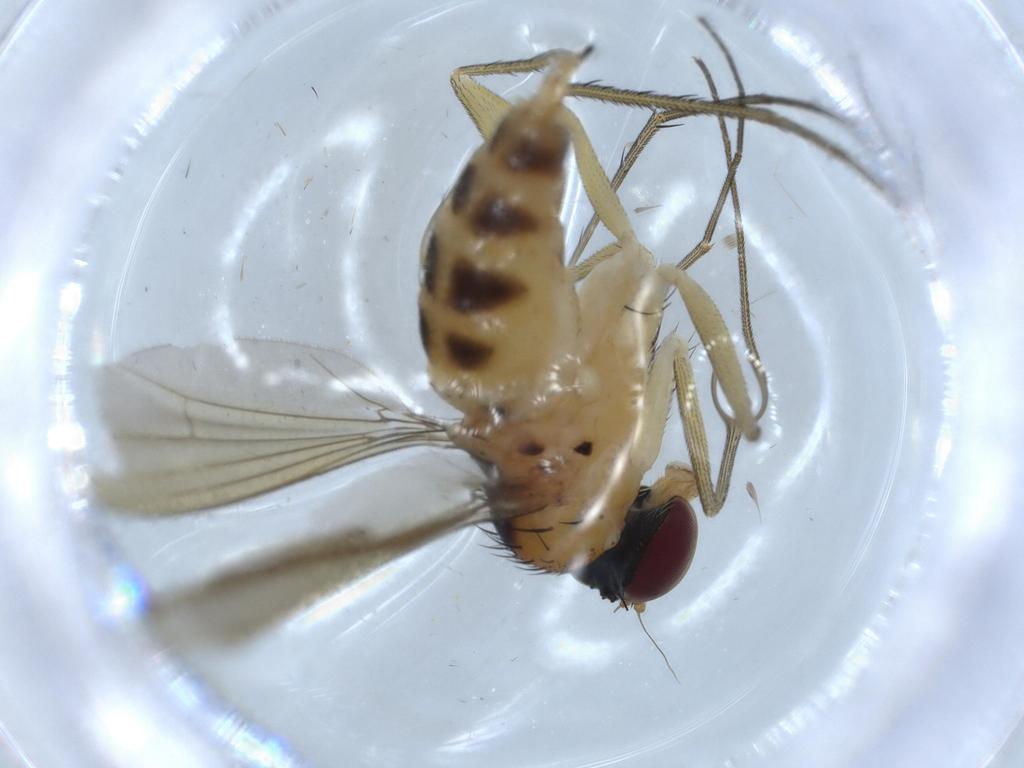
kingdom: Animalia
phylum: Arthropoda
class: Insecta
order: Diptera
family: Dolichopodidae
